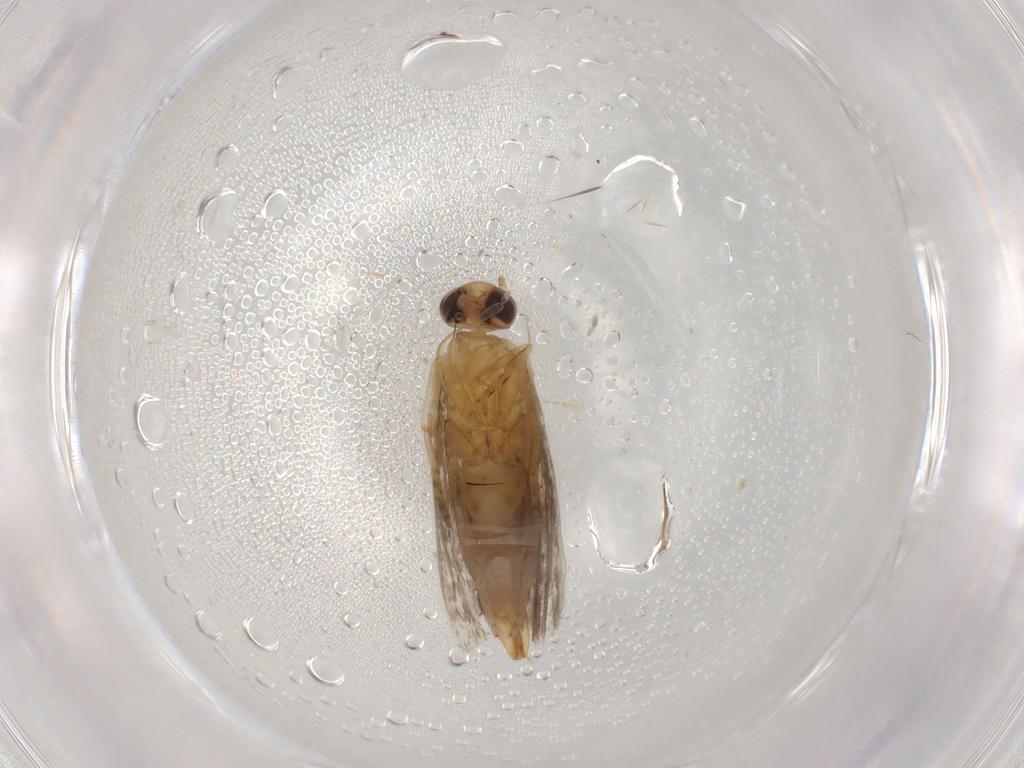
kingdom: Animalia
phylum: Arthropoda
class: Insecta
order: Lepidoptera
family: Tortricidae
